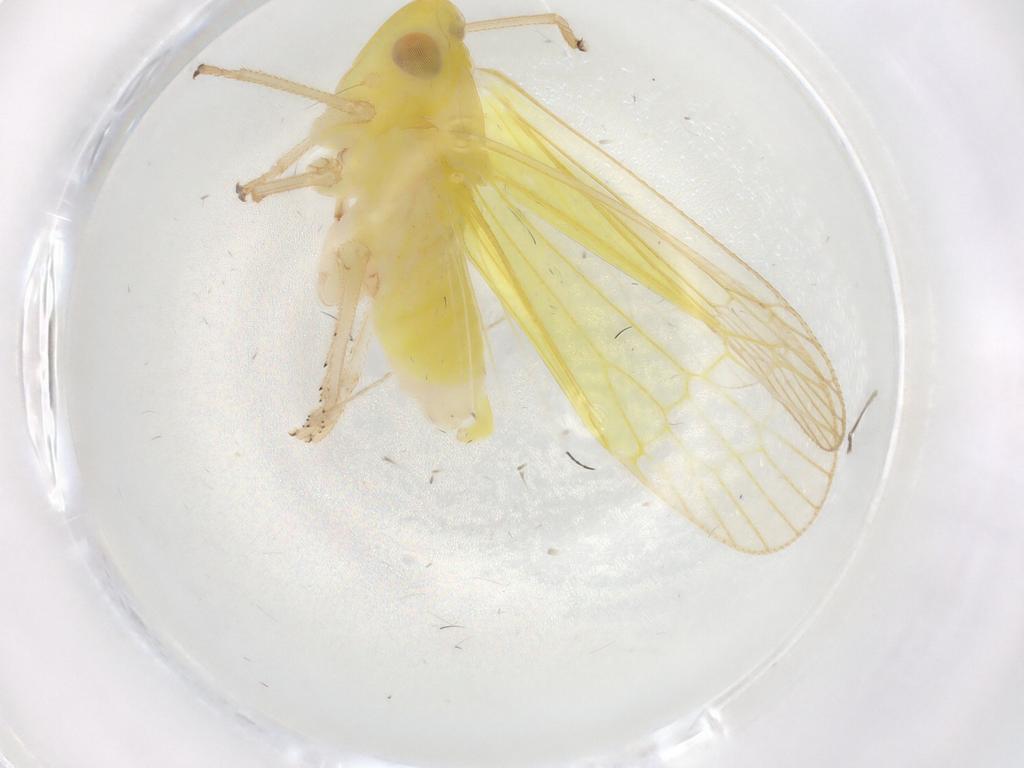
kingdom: Animalia
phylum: Arthropoda
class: Insecta
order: Hemiptera
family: Tropiduchidae
